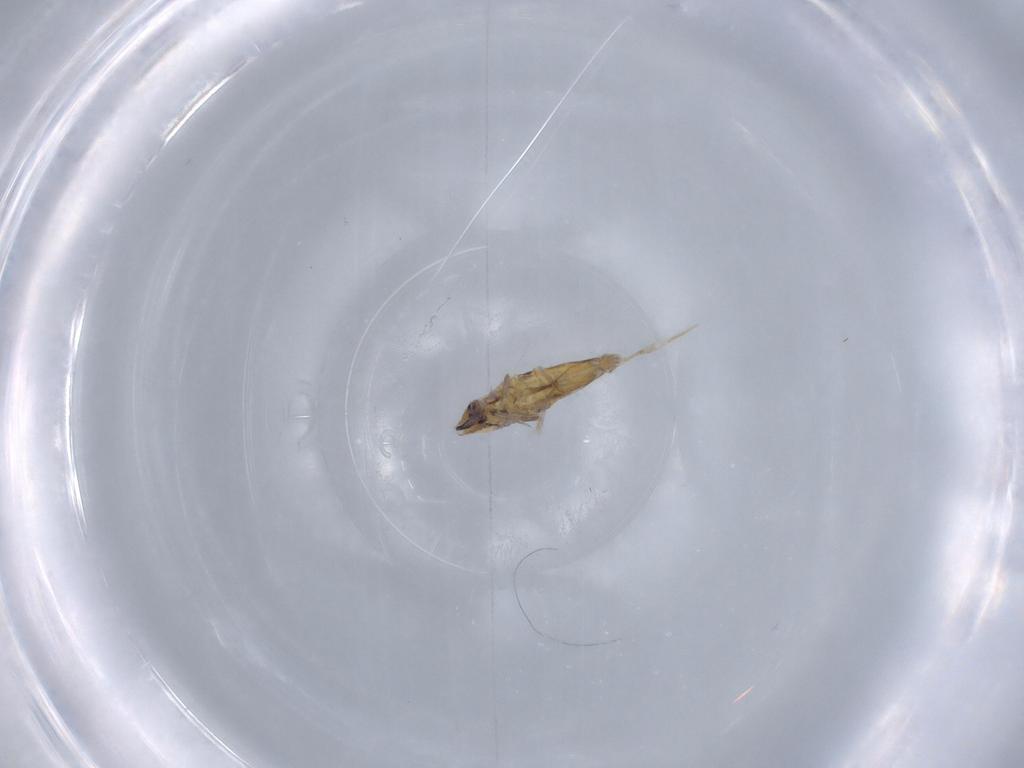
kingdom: Animalia
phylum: Arthropoda
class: Collembola
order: Poduromorpha
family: Hypogastruridae
